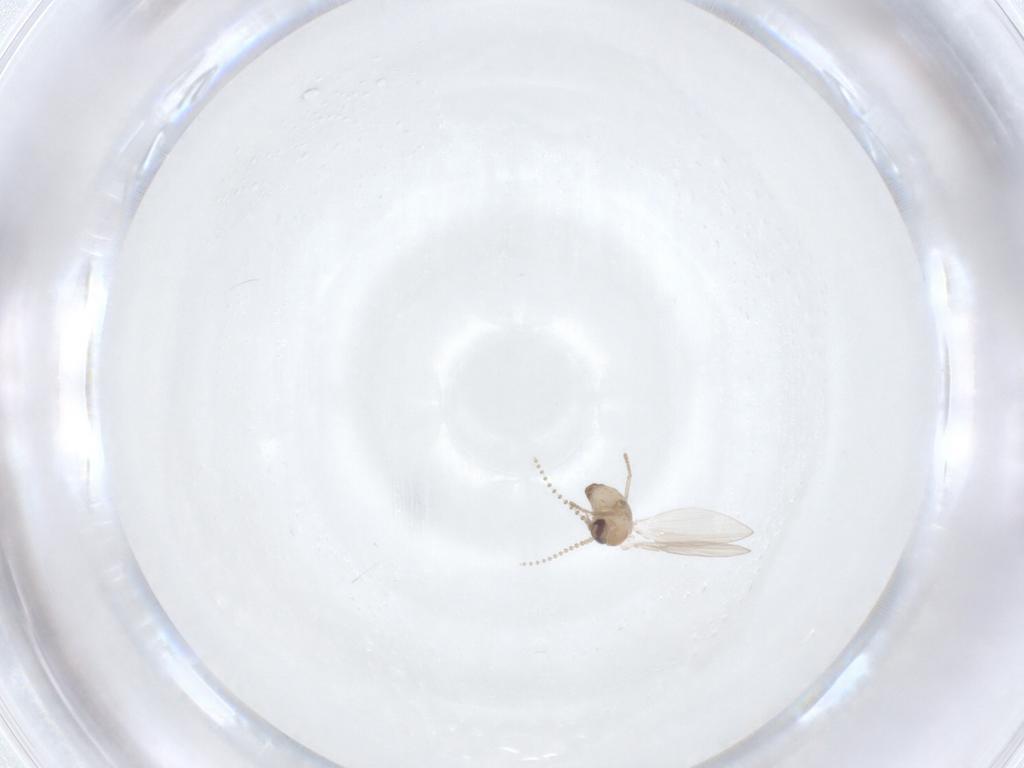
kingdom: Animalia
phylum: Arthropoda
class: Insecta
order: Diptera
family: Psychodidae
